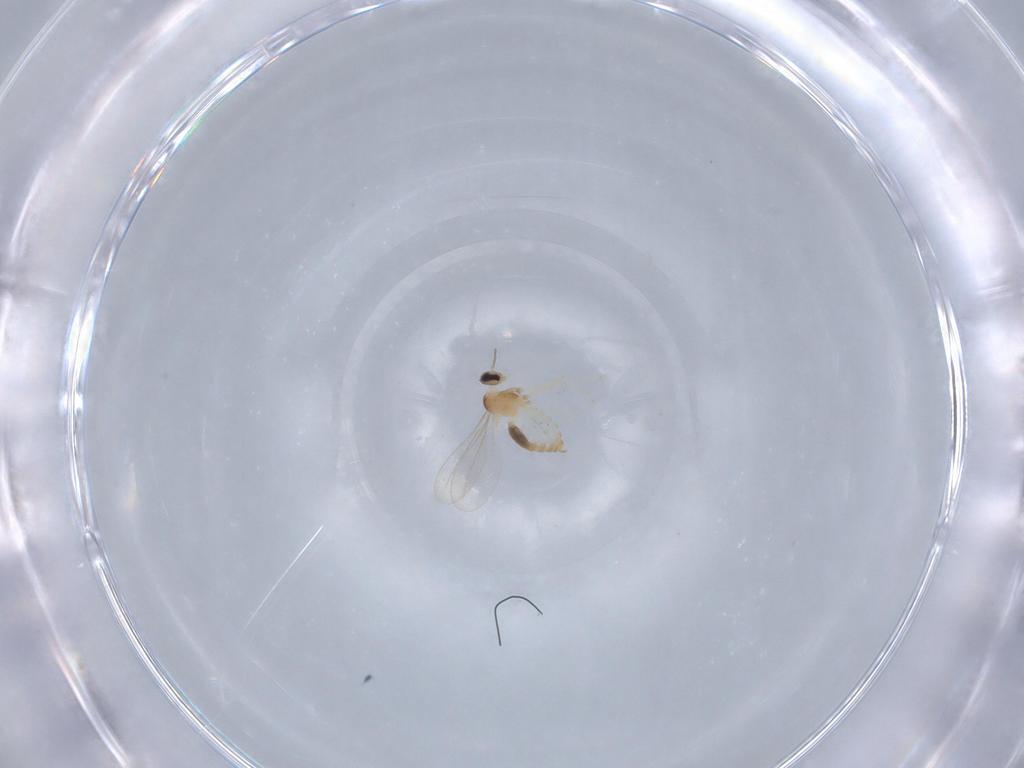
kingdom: Animalia
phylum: Arthropoda
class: Insecta
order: Diptera
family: Cecidomyiidae
